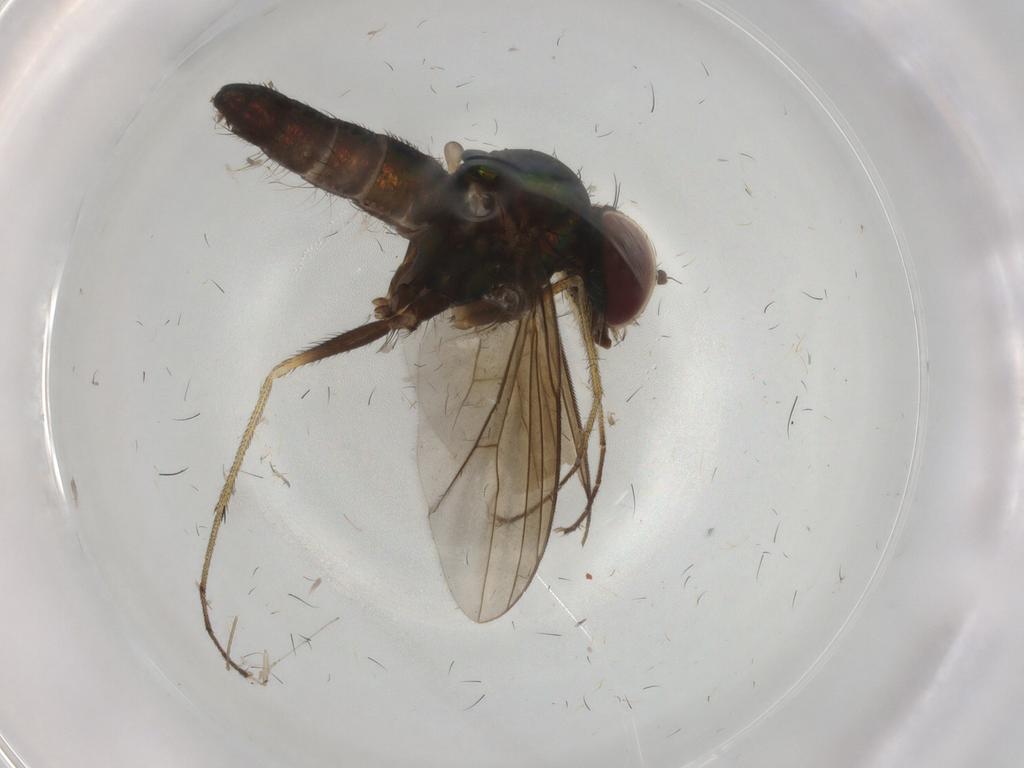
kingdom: Animalia
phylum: Arthropoda
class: Insecta
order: Diptera
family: Dolichopodidae
